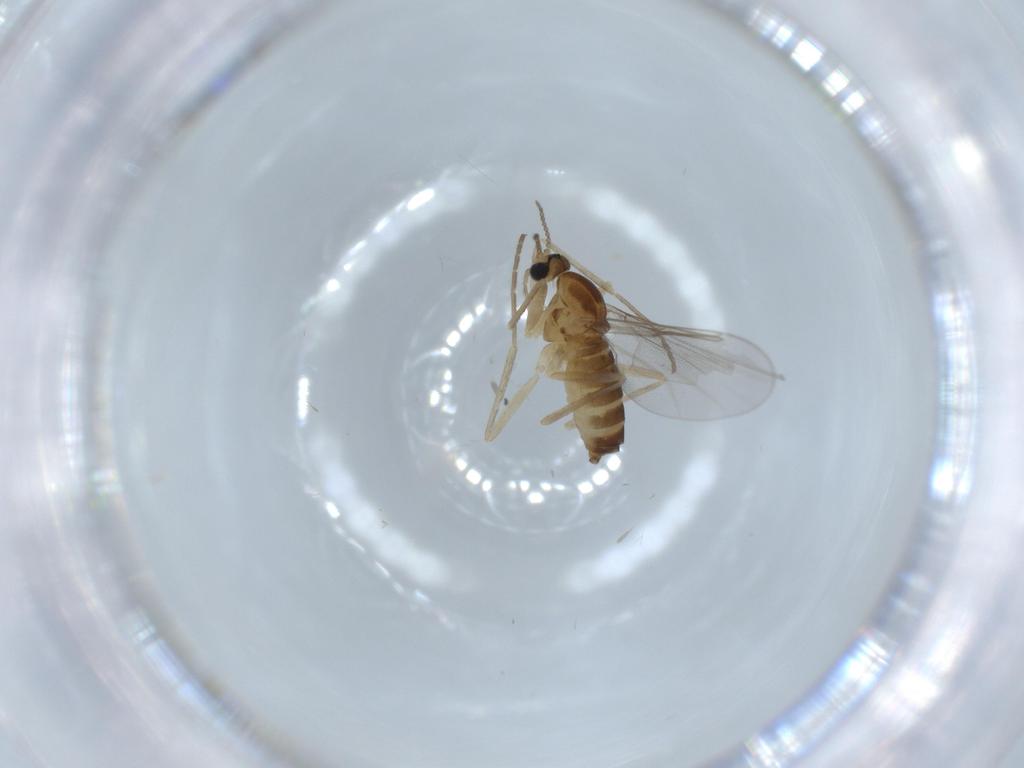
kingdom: Animalia
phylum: Arthropoda
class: Insecta
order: Diptera
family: Cecidomyiidae
